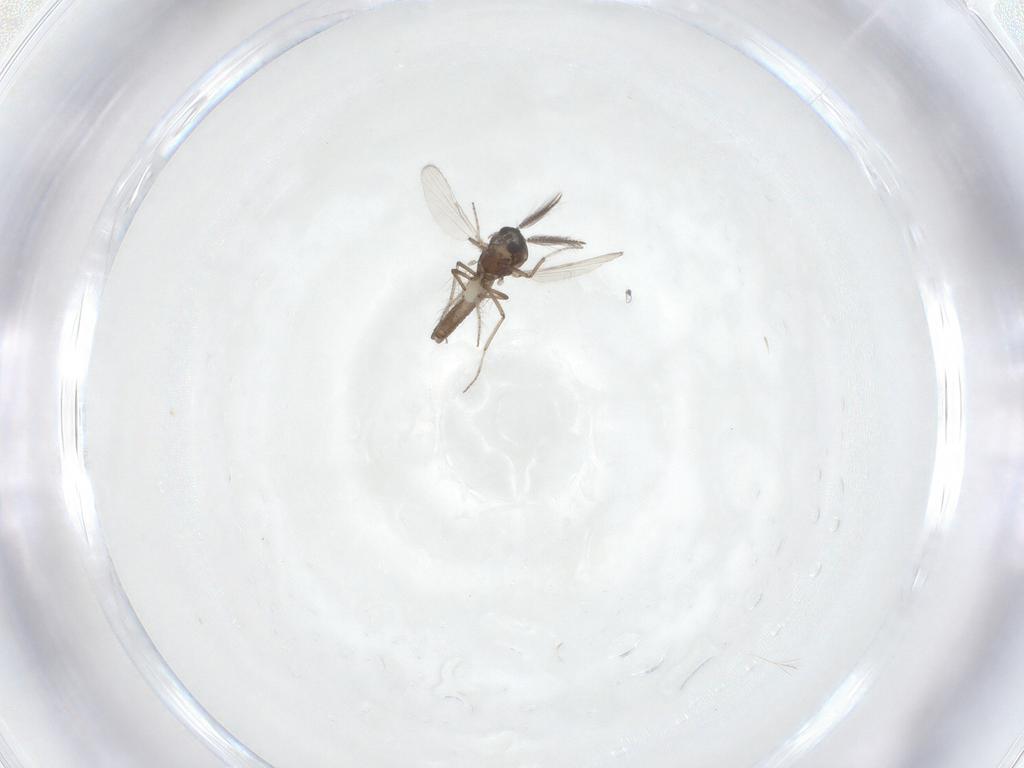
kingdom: Animalia
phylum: Arthropoda
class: Insecta
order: Diptera
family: Ceratopogonidae
